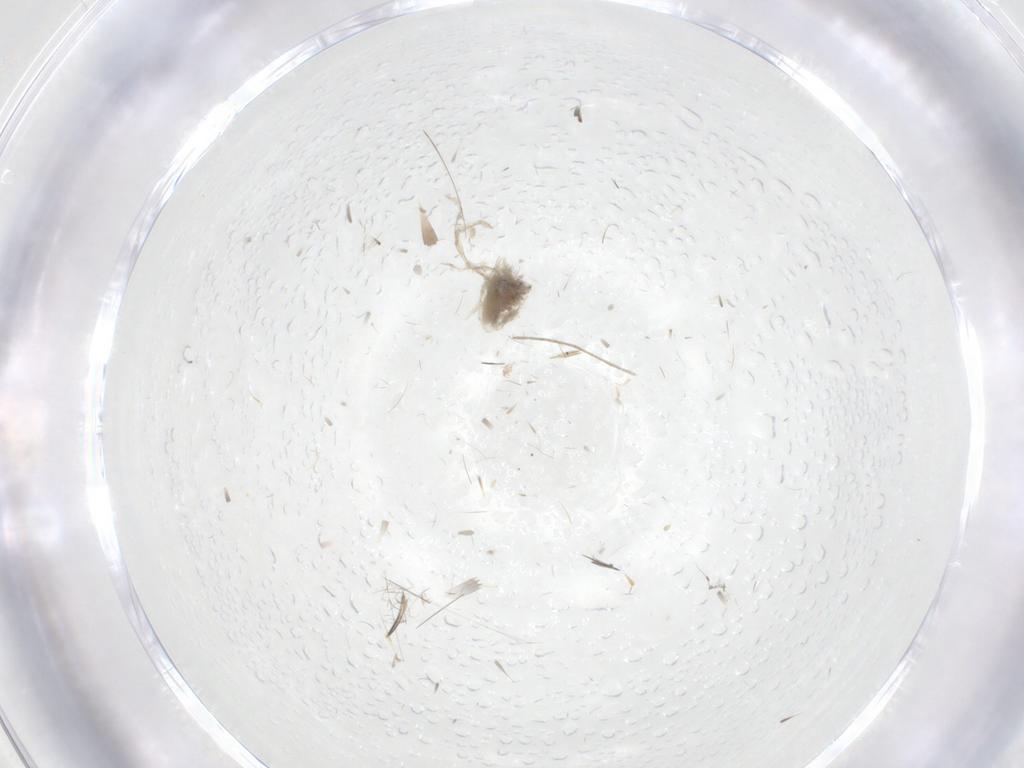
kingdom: Animalia
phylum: Arthropoda
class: Insecta
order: Diptera
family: Chironomidae
